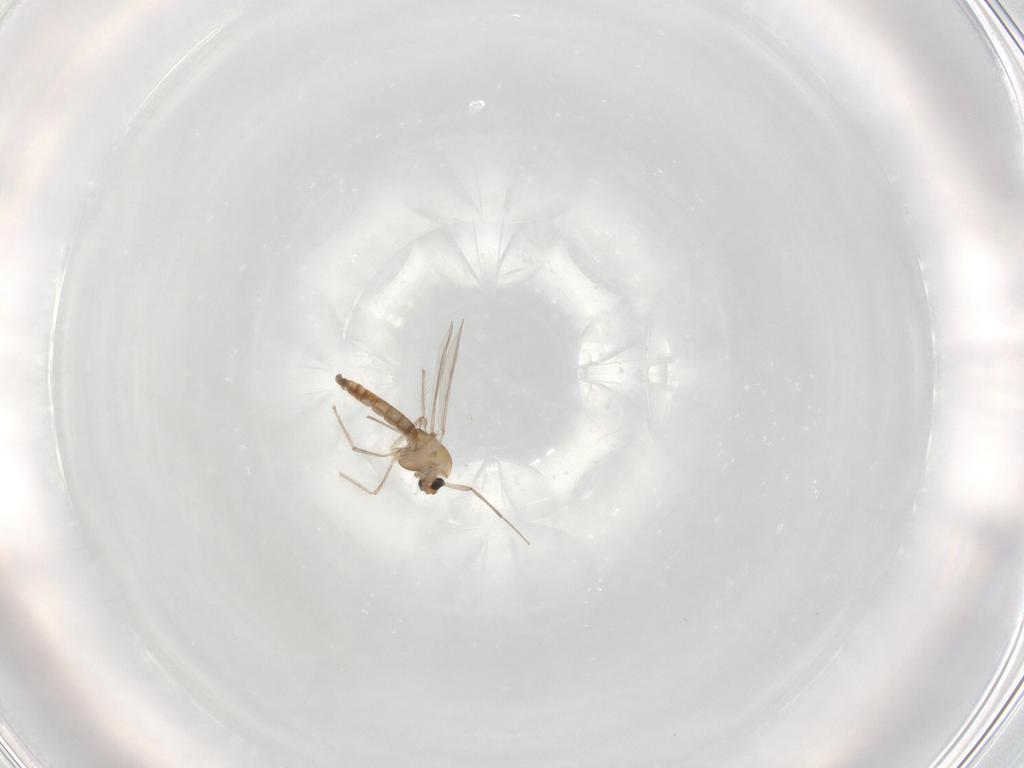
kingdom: Animalia
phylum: Arthropoda
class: Insecta
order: Diptera
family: Chironomidae
